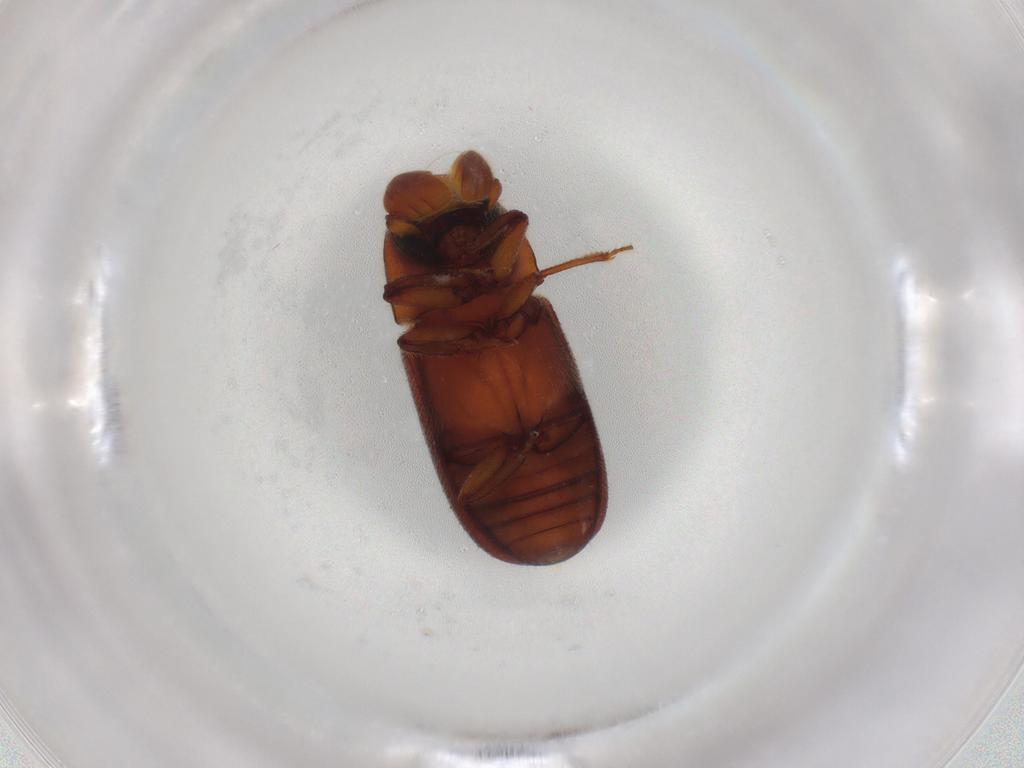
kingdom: Animalia
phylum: Arthropoda
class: Insecta
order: Coleoptera
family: Curculionidae
